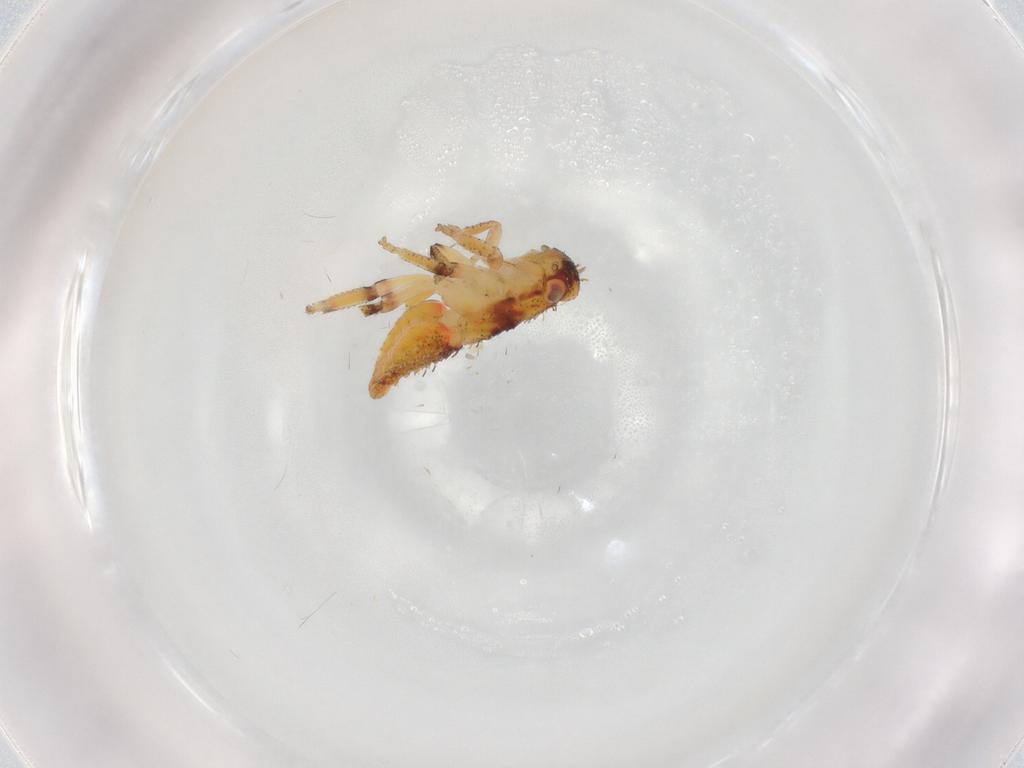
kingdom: Animalia
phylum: Arthropoda
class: Insecta
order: Hemiptera
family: Cicadellidae
